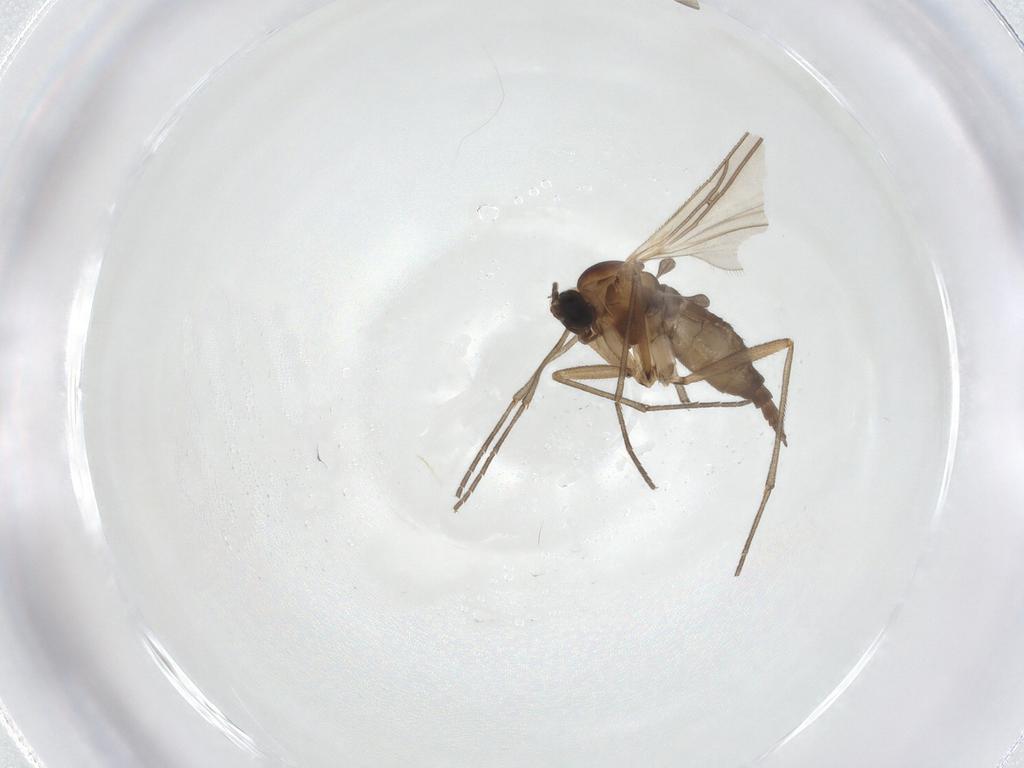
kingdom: Animalia
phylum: Arthropoda
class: Insecta
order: Diptera
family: Sciaridae
